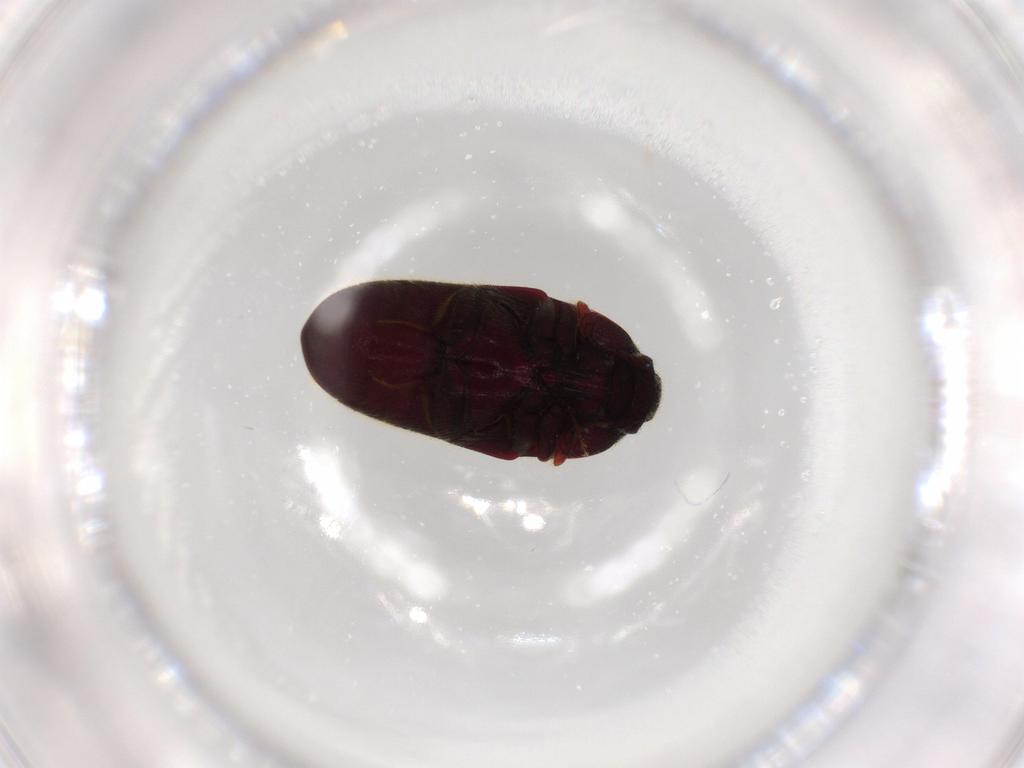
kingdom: Animalia
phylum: Arthropoda
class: Insecta
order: Coleoptera
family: Throscidae
